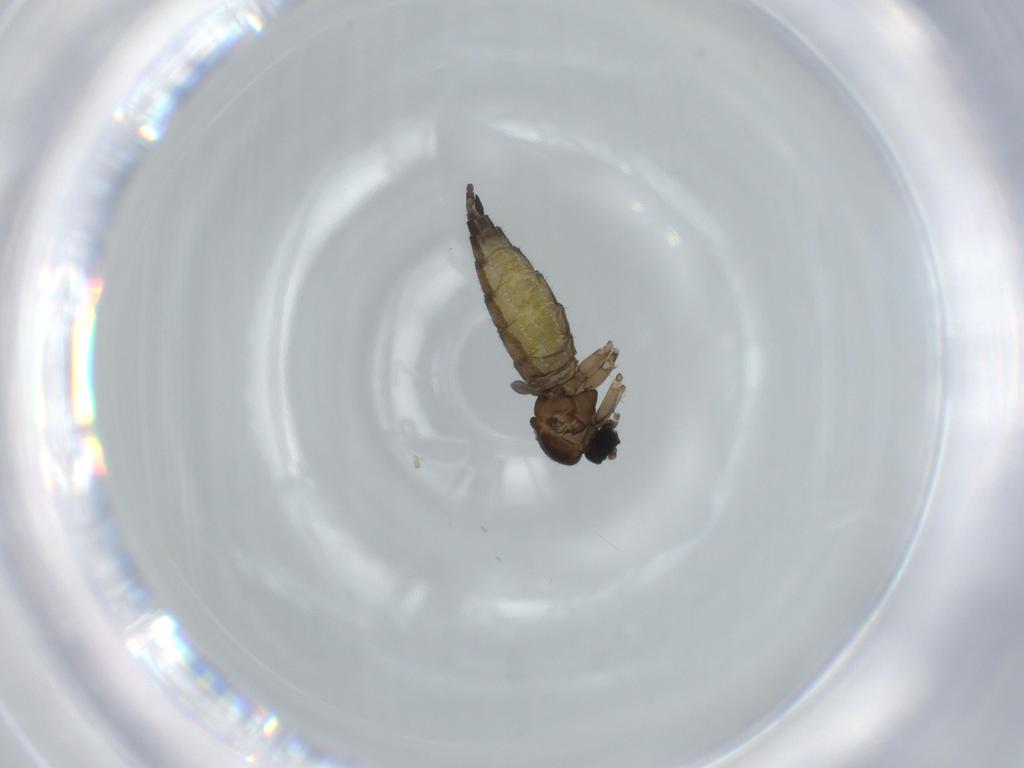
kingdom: Animalia
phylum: Arthropoda
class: Insecta
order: Diptera
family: Sciaridae
